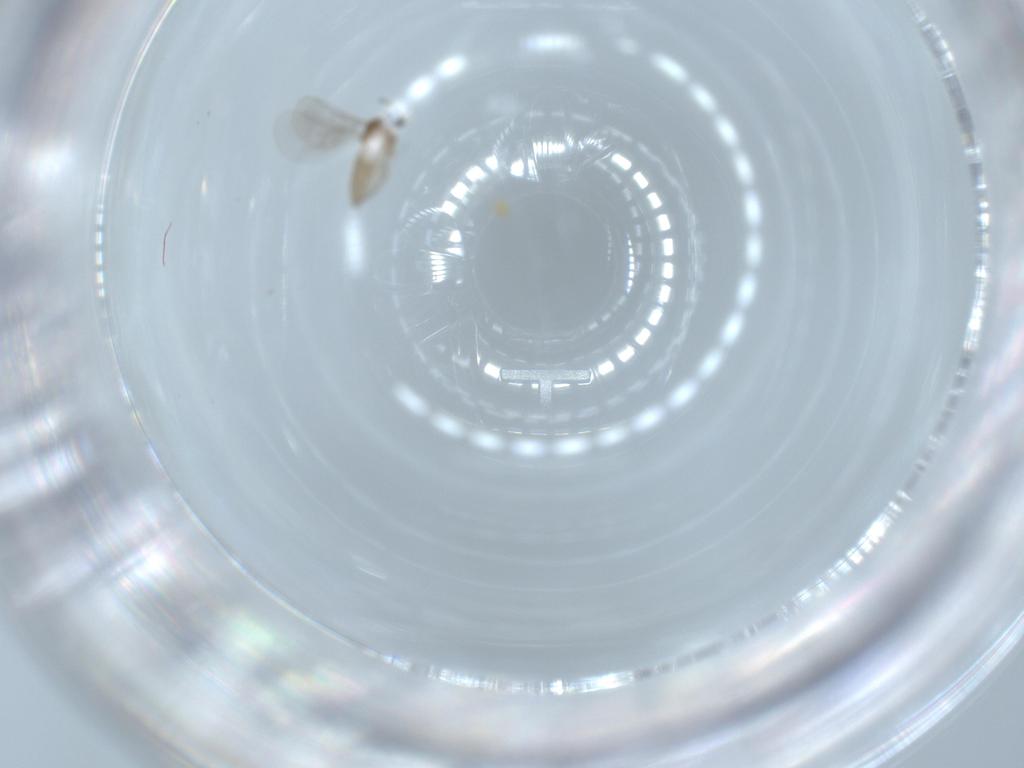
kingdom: Animalia
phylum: Arthropoda
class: Insecta
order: Diptera
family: Cecidomyiidae
